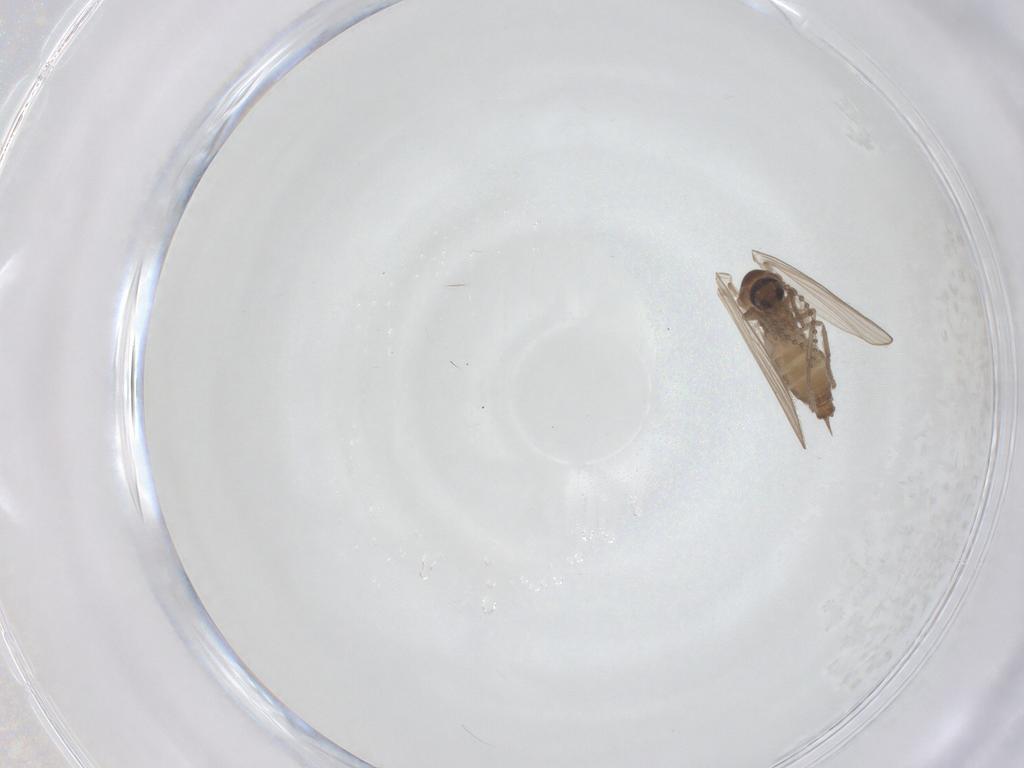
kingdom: Animalia
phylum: Arthropoda
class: Insecta
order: Diptera
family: Psychodidae
